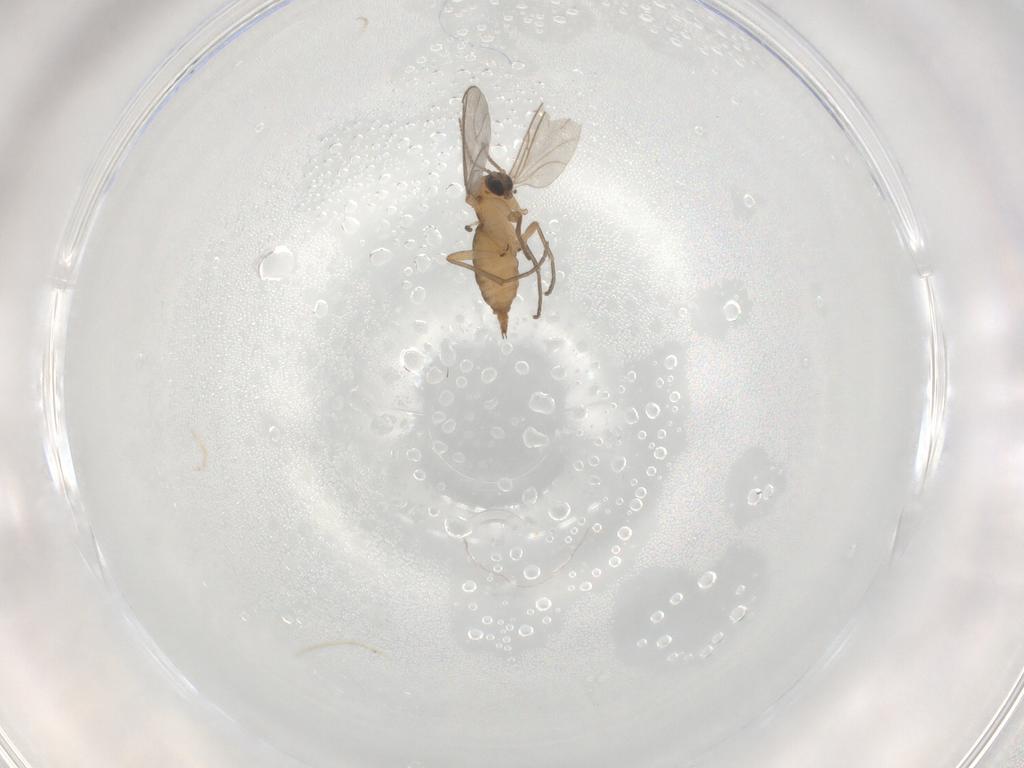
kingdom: Animalia
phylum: Arthropoda
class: Insecta
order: Diptera
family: Sciaridae
